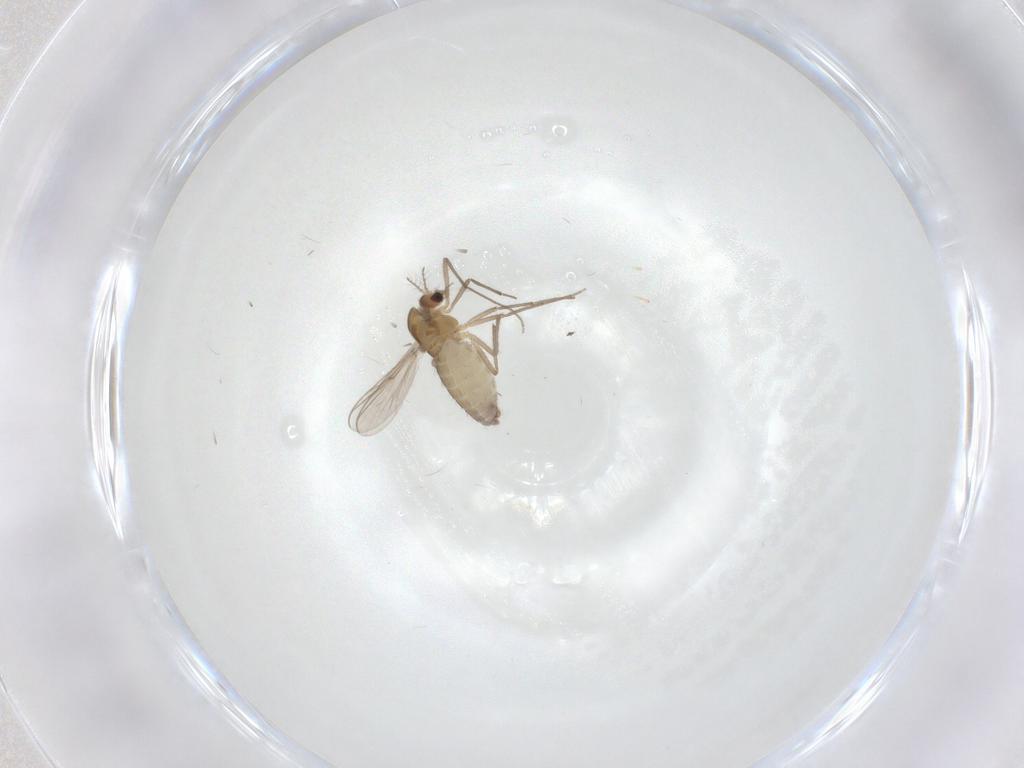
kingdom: Animalia
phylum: Arthropoda
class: Insecta
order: Diptera
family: Chironomidae
